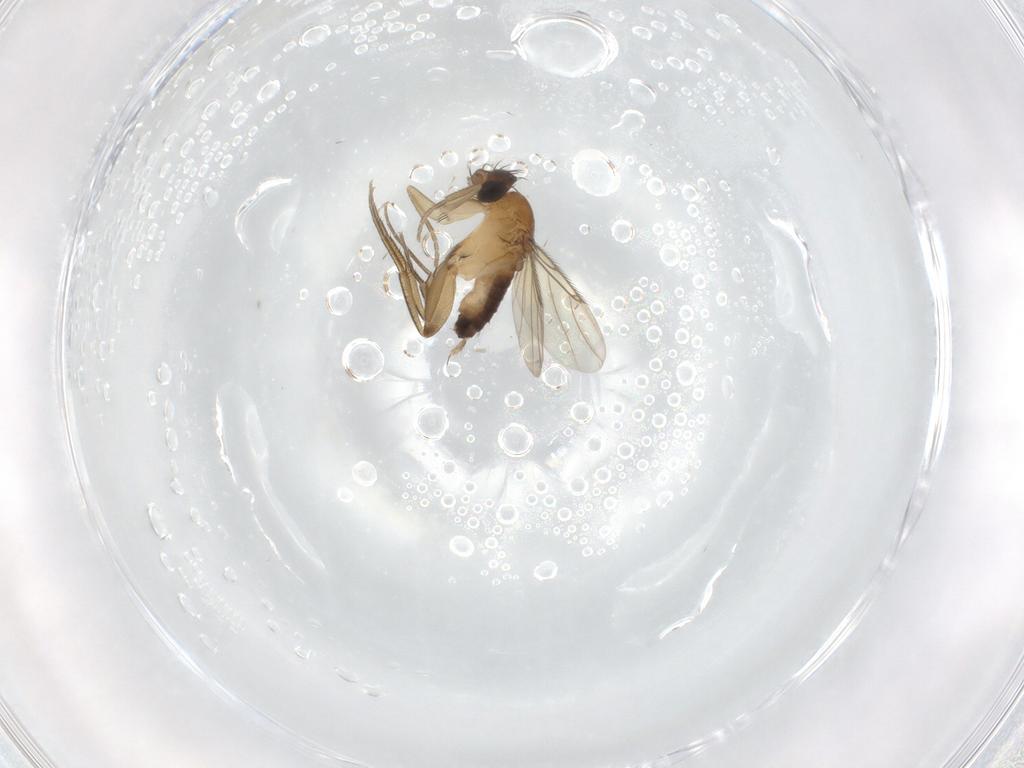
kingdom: Animalia
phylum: Arthropoda
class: Insecta
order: Diptera
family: Phoridae
